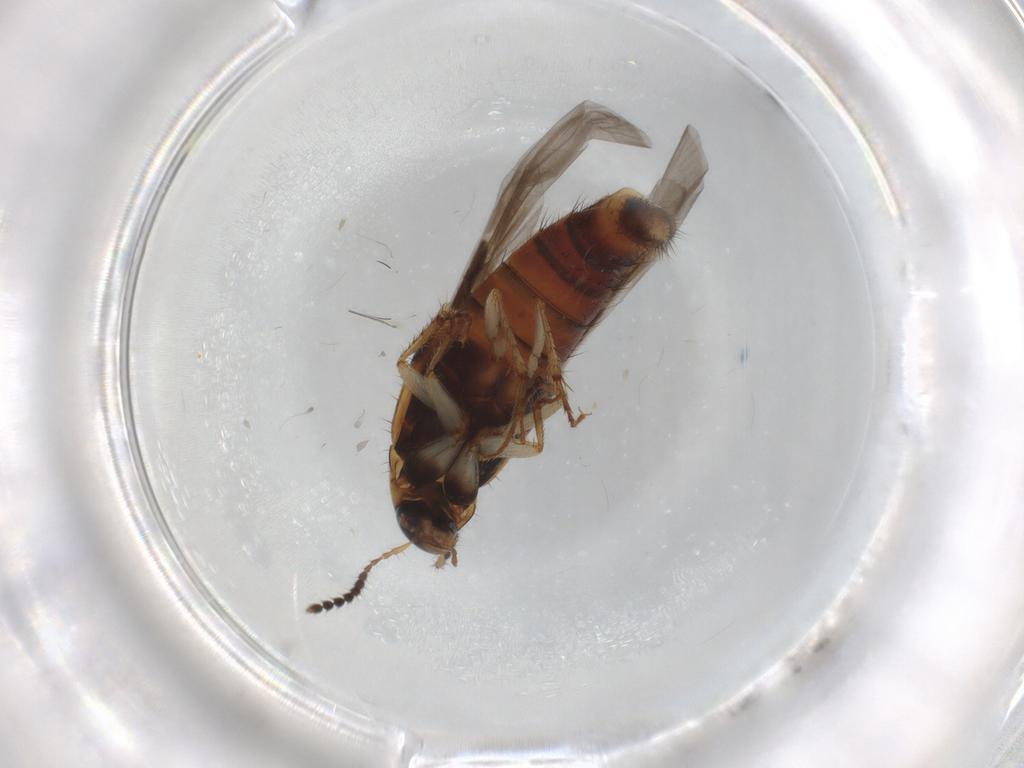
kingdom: Animalia
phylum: Arthropoda
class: Insecta
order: Coleoptera
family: Staphylinidae
